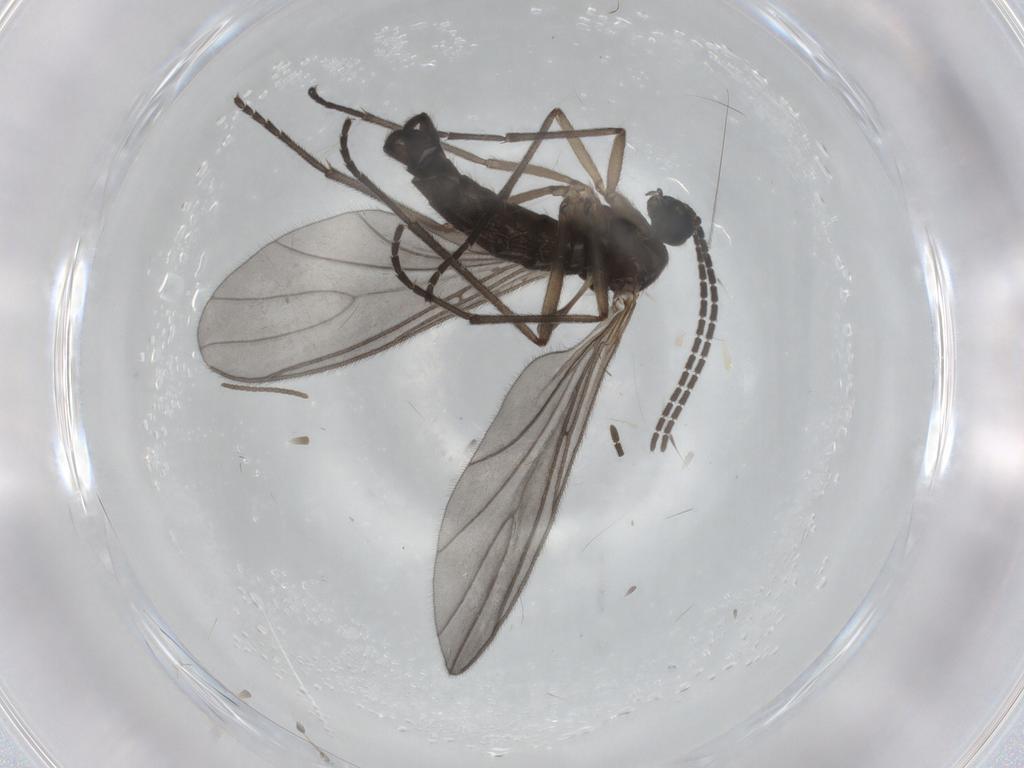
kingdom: Animalia
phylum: Arthropoda
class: Insecta
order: Diptera
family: Sciaridae
